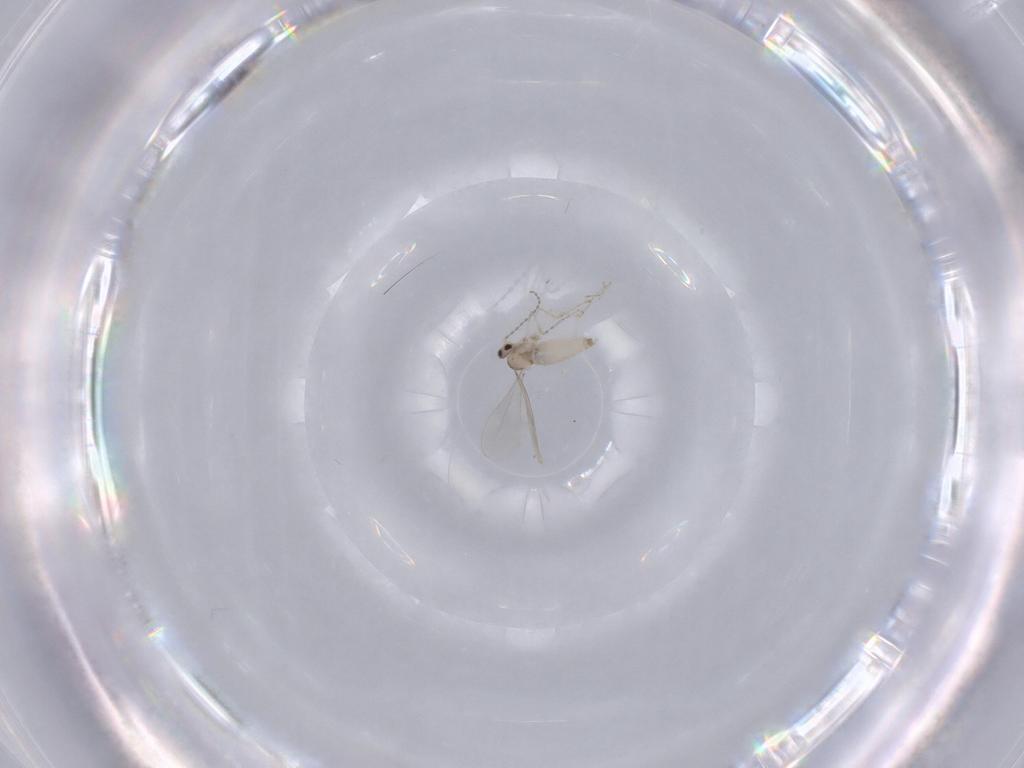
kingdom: Animalia
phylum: Arthropoda
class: Insecta
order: Diptera
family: Cecidomyiidae
